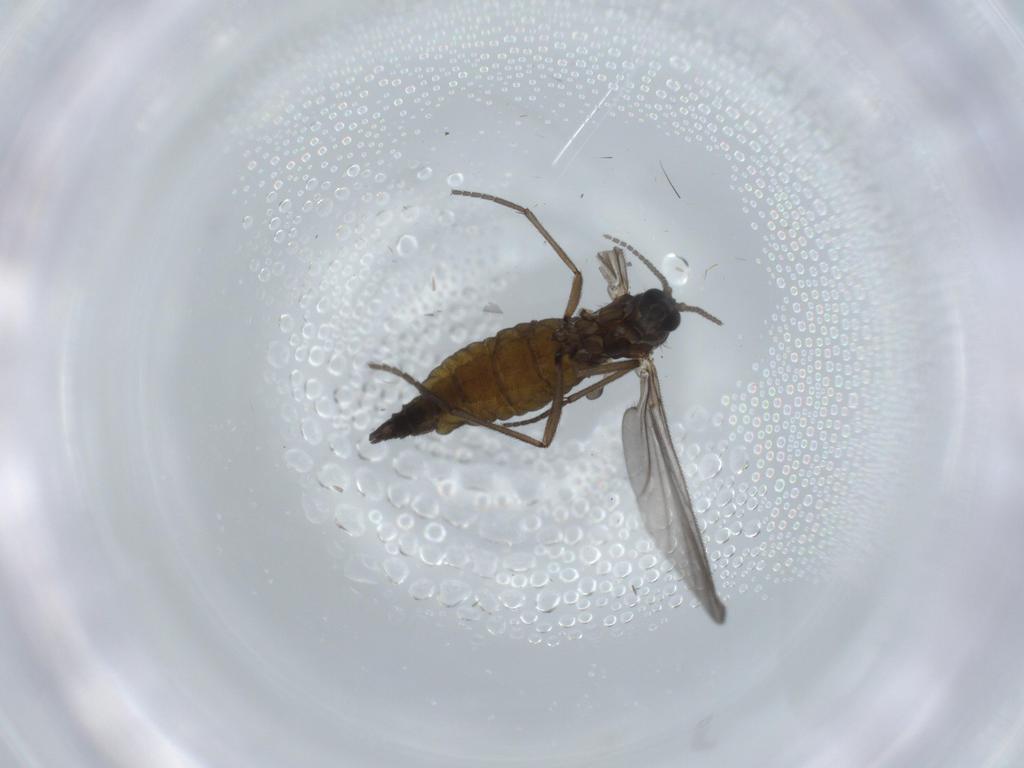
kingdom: Animalia
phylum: Arthropoda
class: Insecta
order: Diptera
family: Sciaridae
